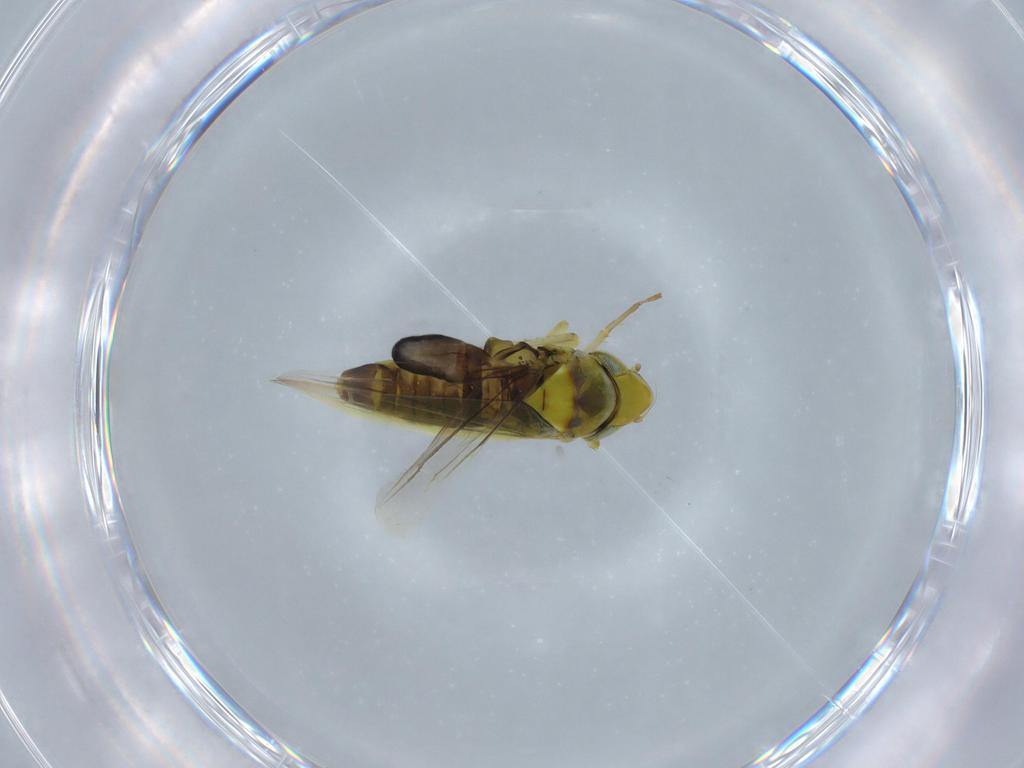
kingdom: Animalia
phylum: Arthropoda
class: Insecta
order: Hemiptera
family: Cicadellidae
